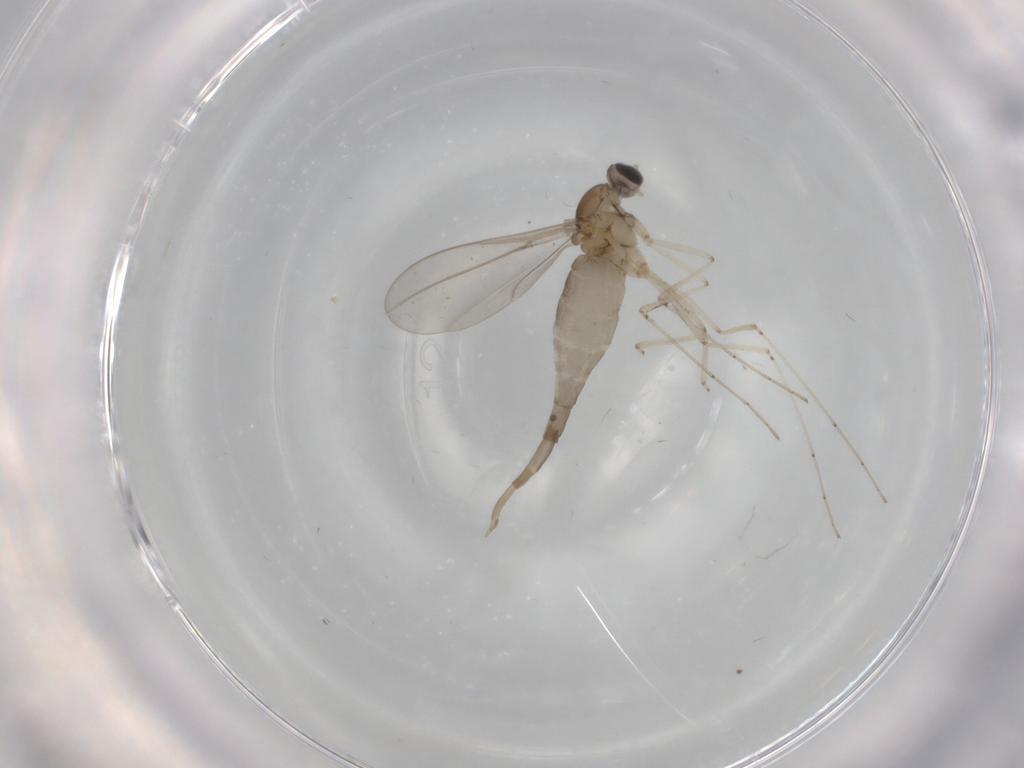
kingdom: Animalia
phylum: Arthropoda
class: Insecta
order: Diptera
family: Cecidomyiidae
